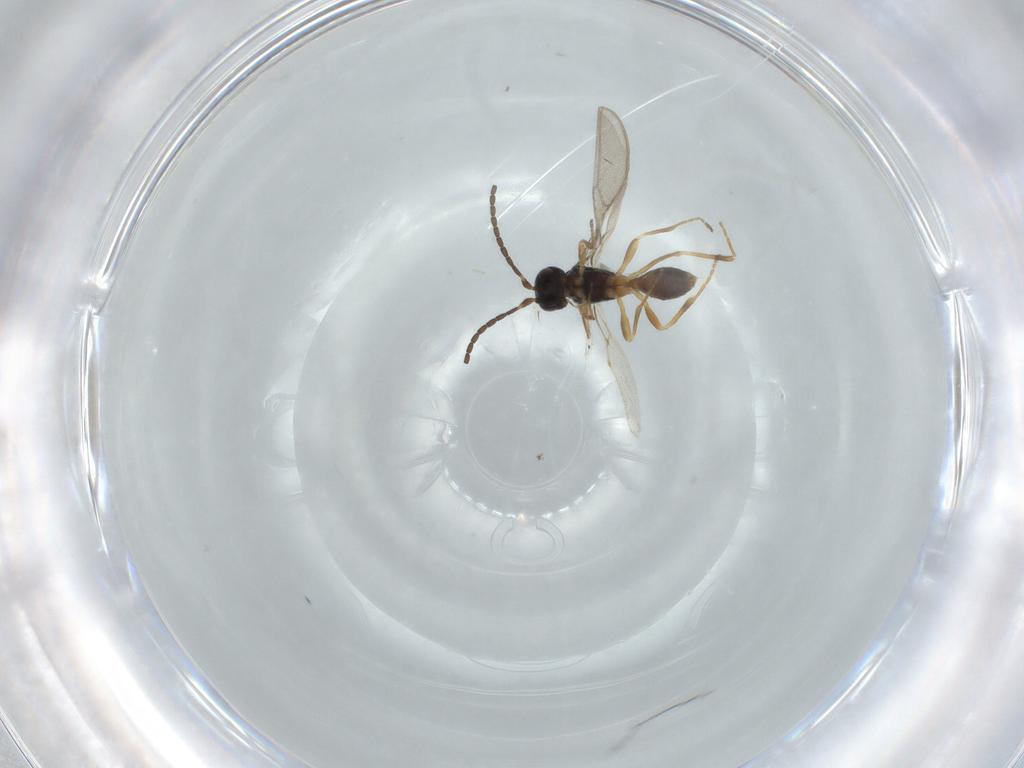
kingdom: Animalia
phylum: Arthropoda
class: Insecta
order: Hymenoptera
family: Braconidae
